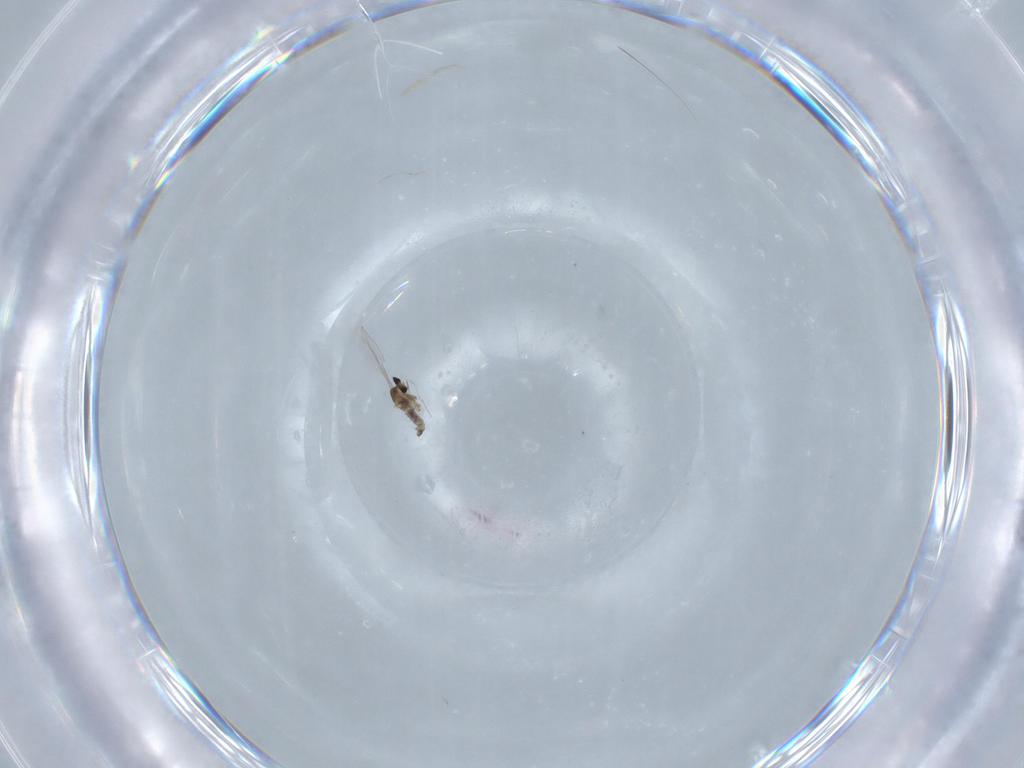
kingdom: Animalia
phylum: Arthropoda
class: Insecta
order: Diptera
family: Cecidomyiidae
